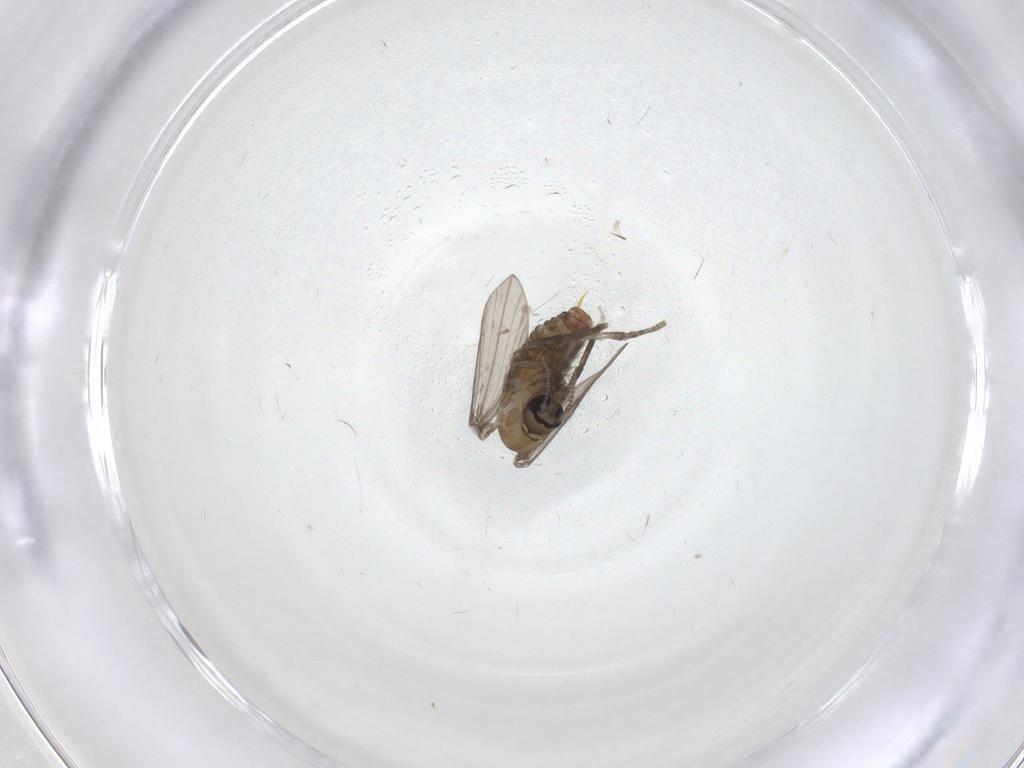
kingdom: Animalia
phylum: Arthropoda
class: Insecta
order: Diptera
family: Psychodidae
